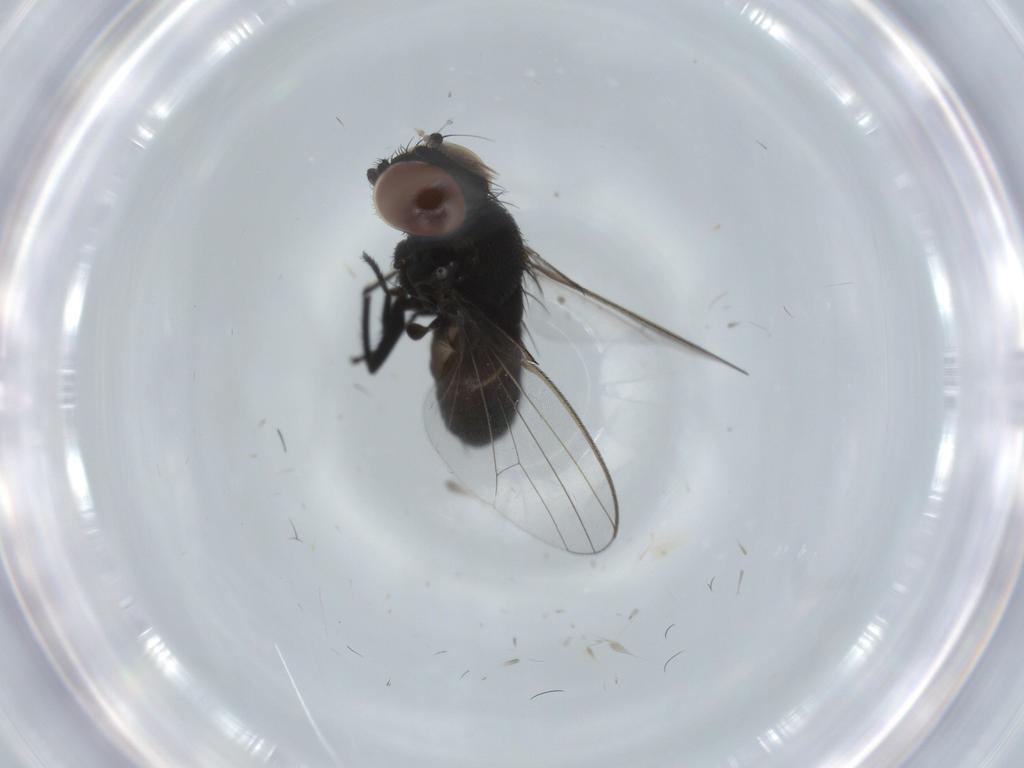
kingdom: Animalia
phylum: Arthropoda
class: Insecta
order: Diptera
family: Milichiidae
